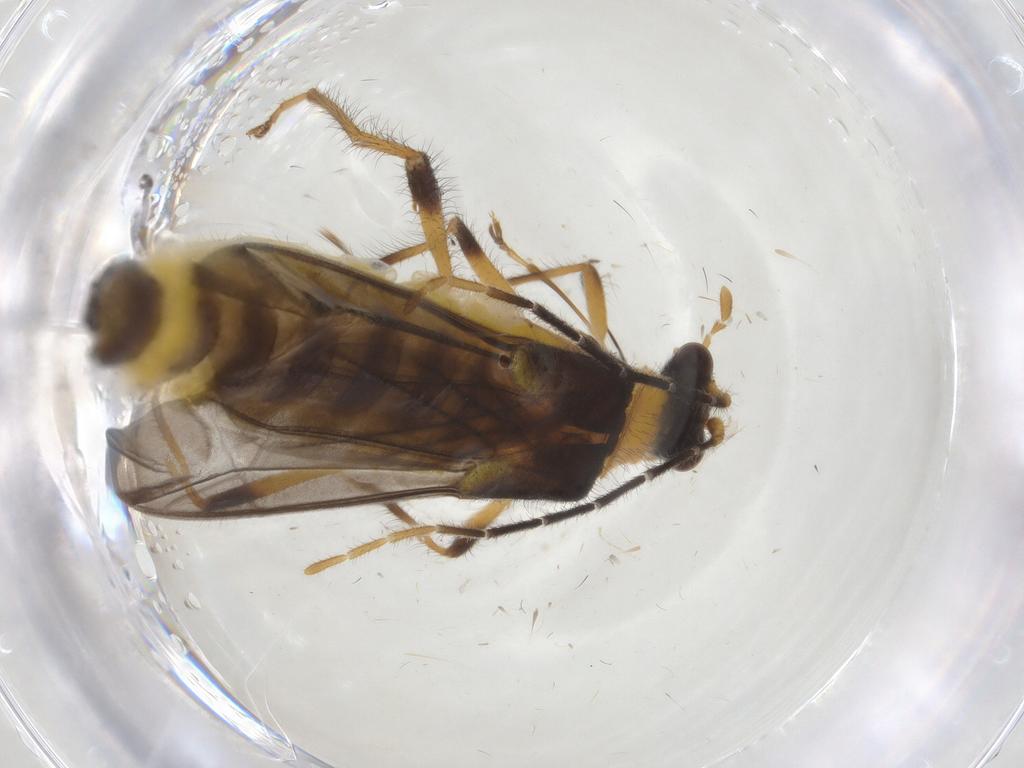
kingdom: Animalia
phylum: Arthropoda
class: Insecta
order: Coleoptera
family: Cantharidae
